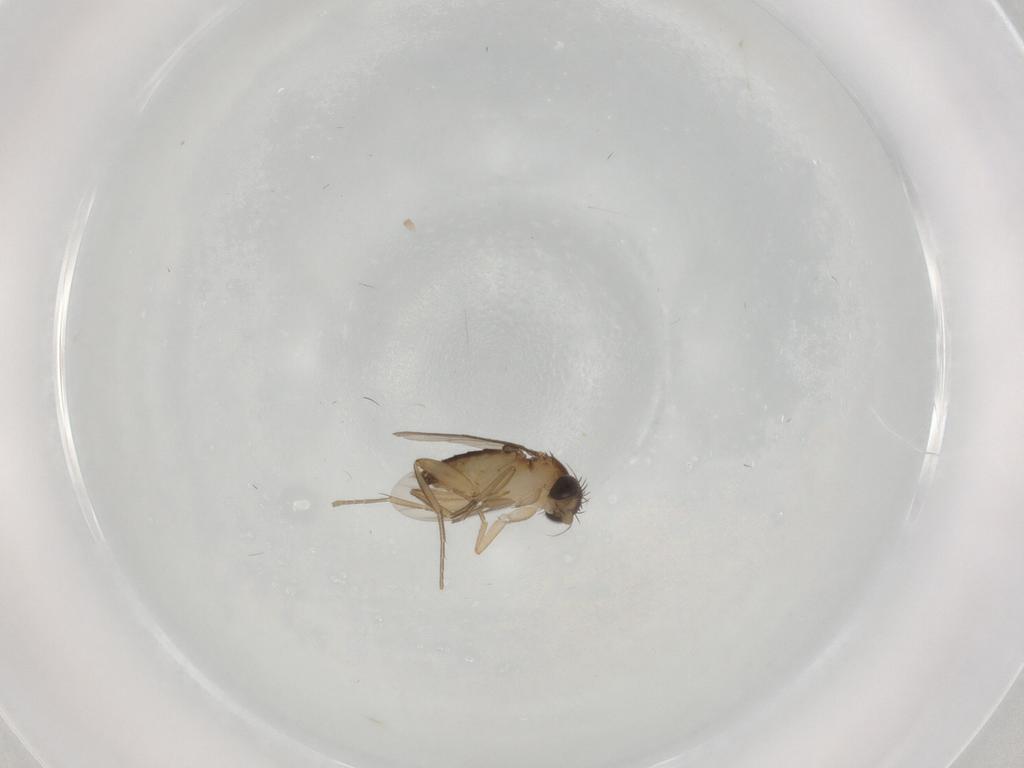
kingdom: Animalia
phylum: Arthropoda
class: Insecta
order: Diptera
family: Phoridae
